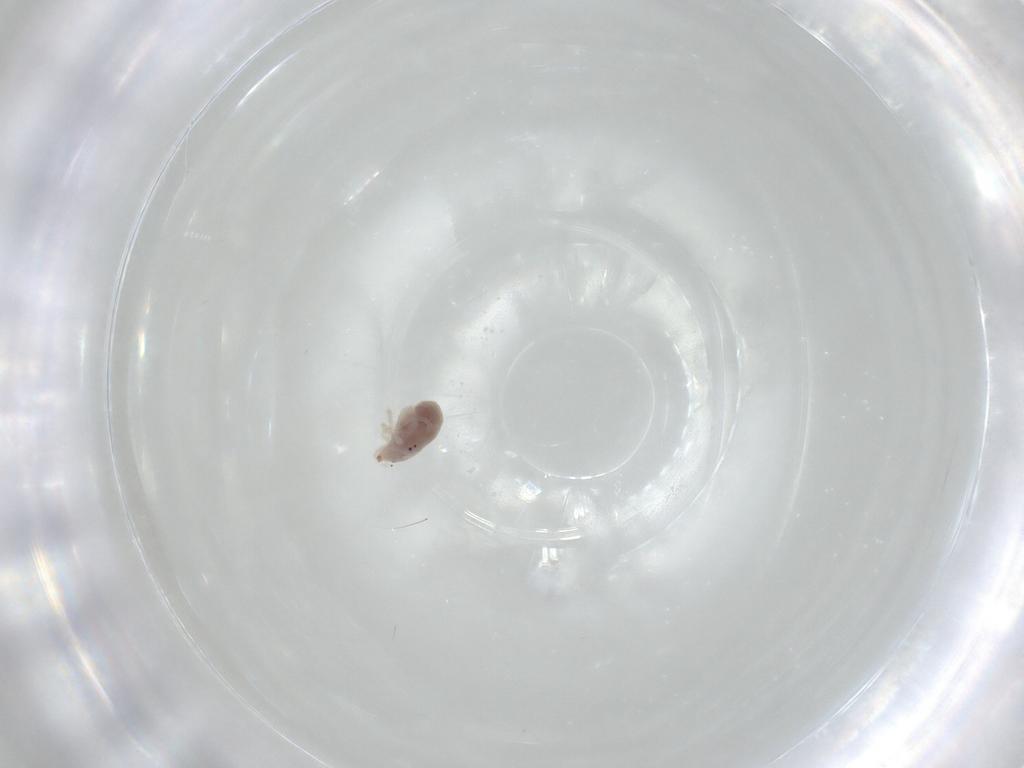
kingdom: Animalia
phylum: Arthropoda
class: Arachnida
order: Trombidiformes
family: Bdellidae
